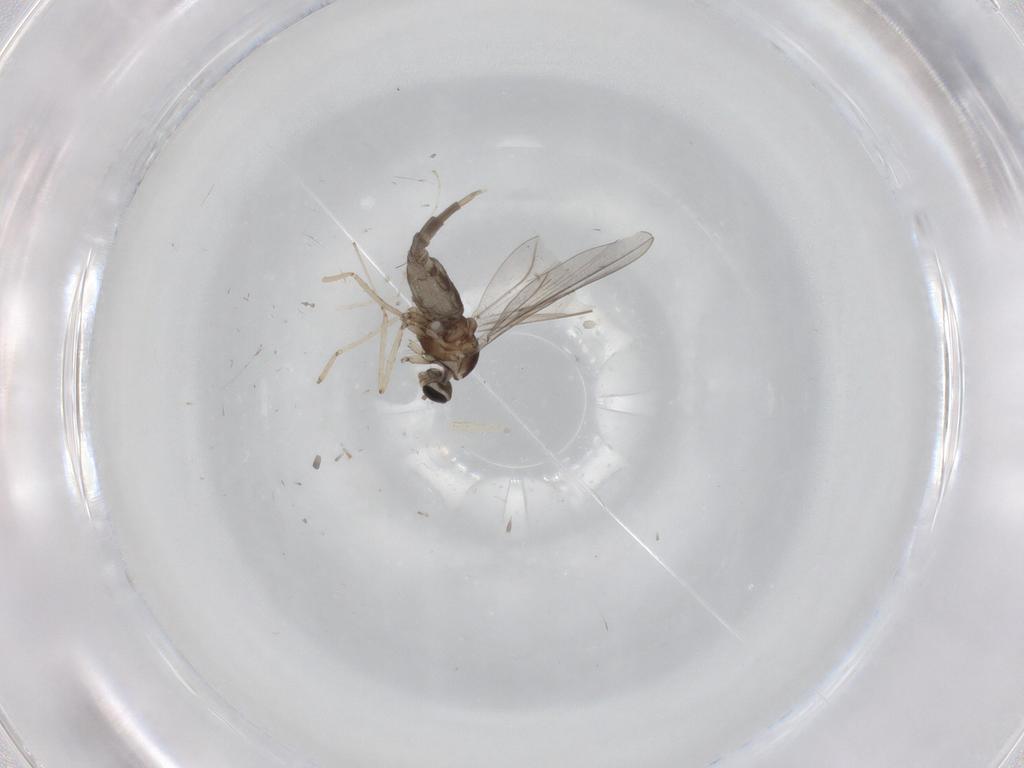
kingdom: Animalia
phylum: Arthropoda
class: Insecta
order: Diptera
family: Cecidomyiidae
